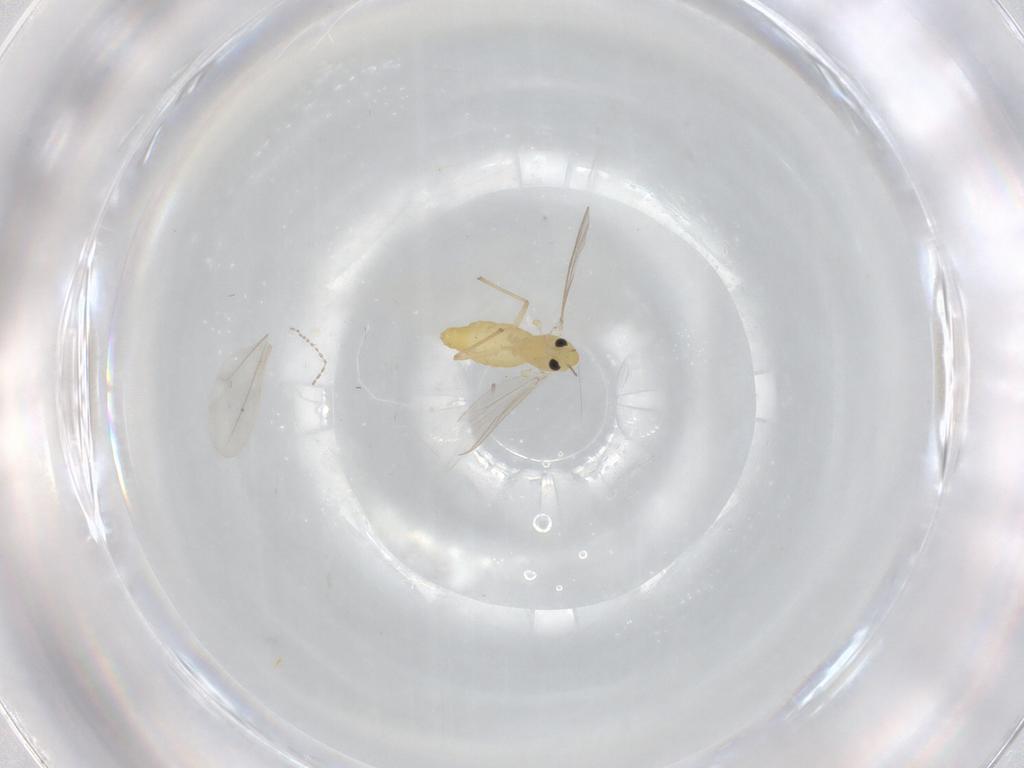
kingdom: Animalia
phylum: Arthropoda
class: Insecta
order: Diptera
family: Chironomidae
